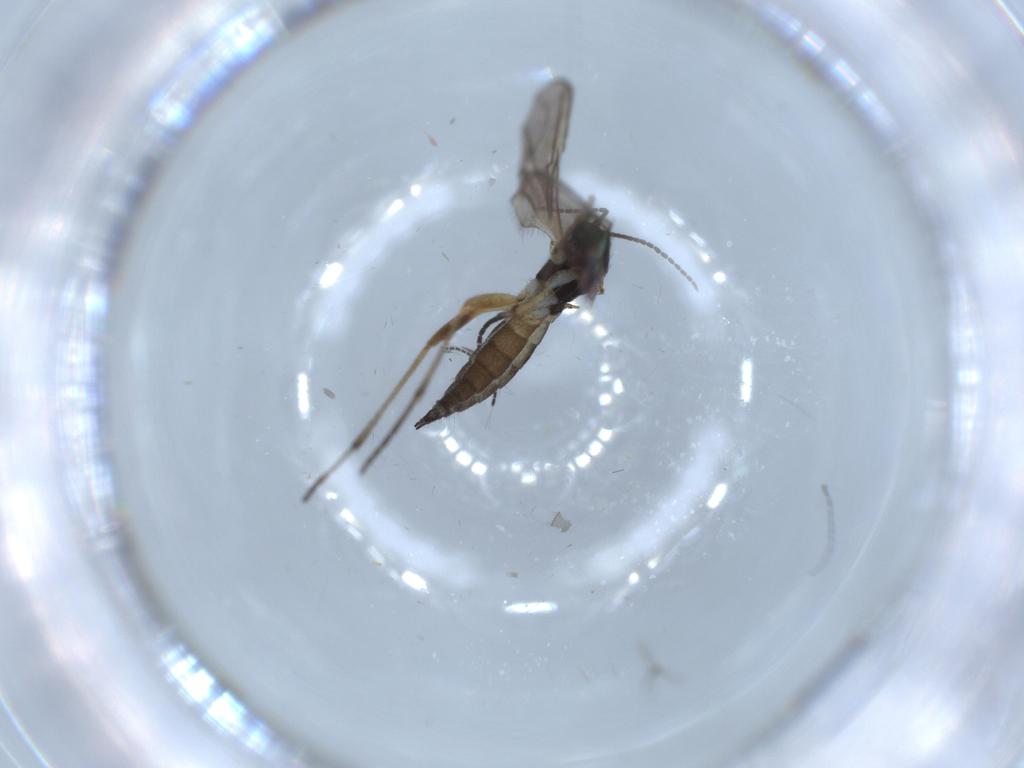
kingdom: Animalia
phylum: Arthropoda
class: Insecta
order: Diptera
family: Sciaridae
